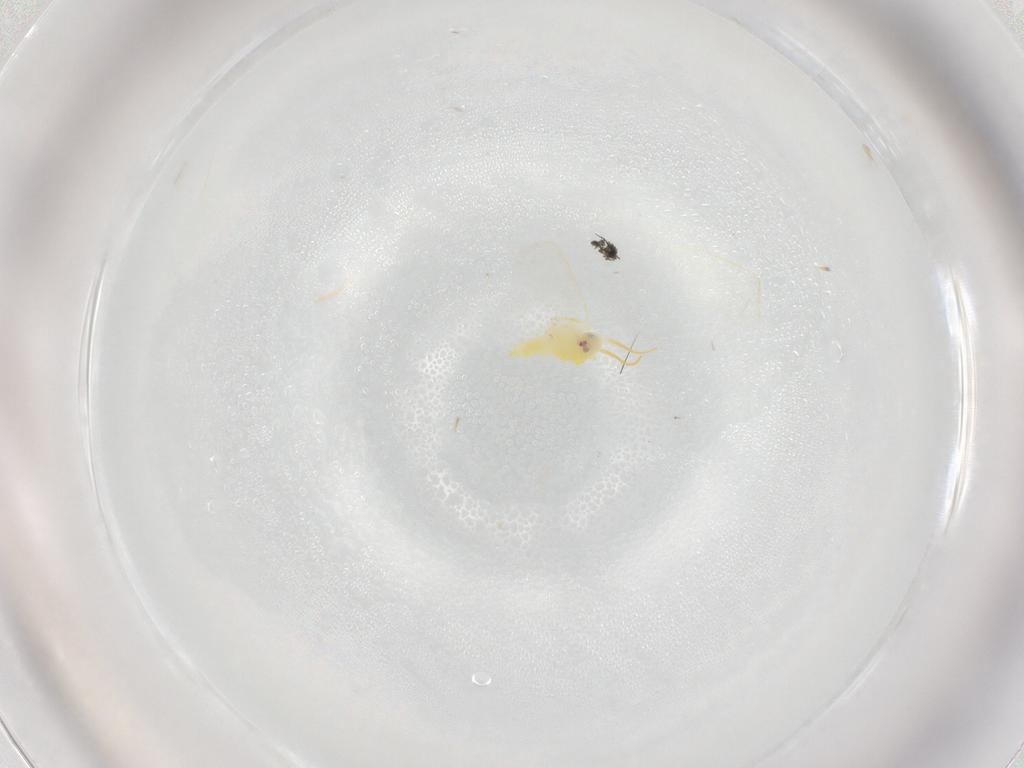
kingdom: Animalia
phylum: Arthropoda
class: Insecta
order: Hemiptera
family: Aleyrodidae
